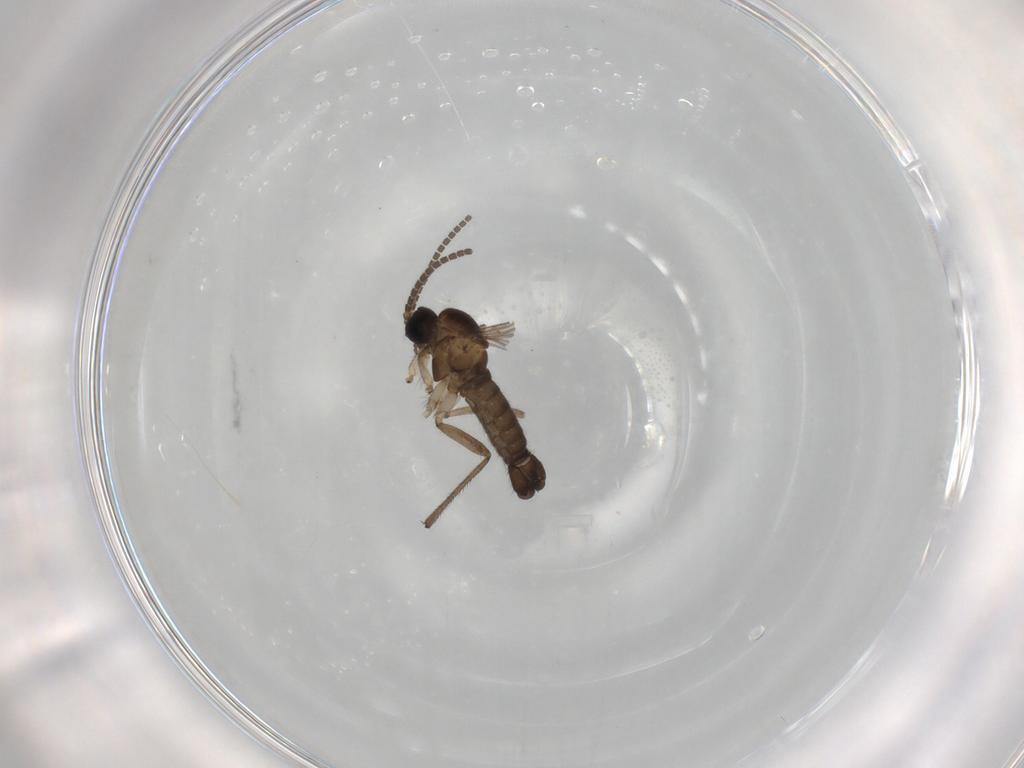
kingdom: Animalia
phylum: Arthropoda
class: Insecta
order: Diptera
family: Sciaridae
